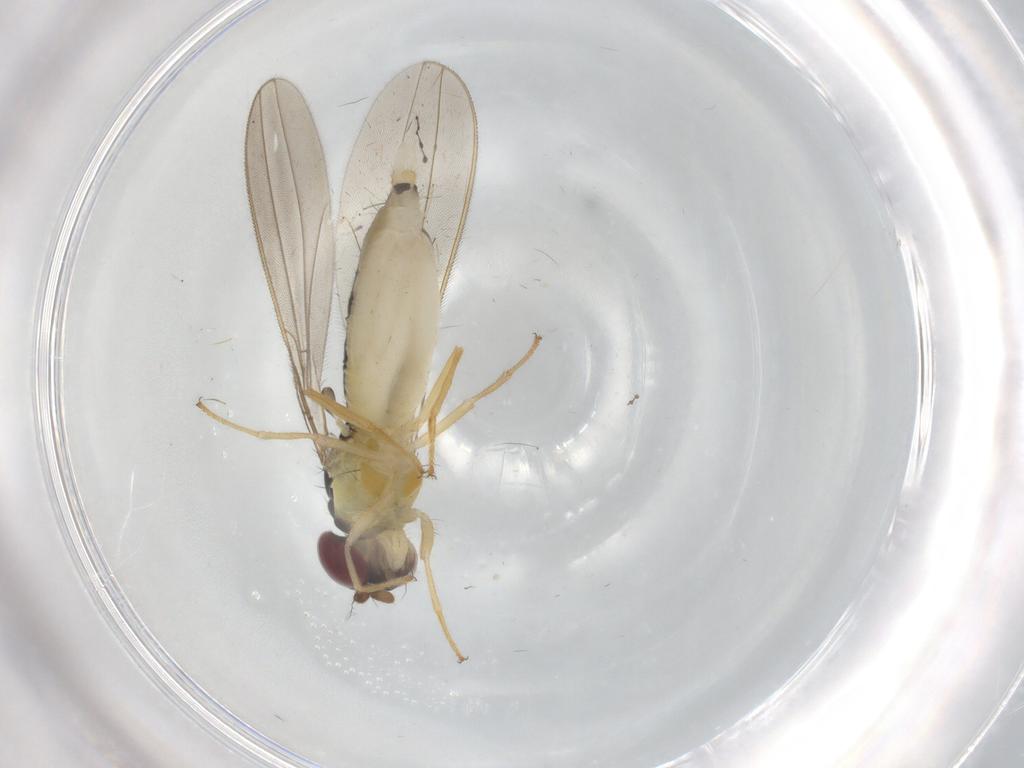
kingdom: Animalia
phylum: Arthropoda
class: Insecta
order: Diptera
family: Asteiidae
